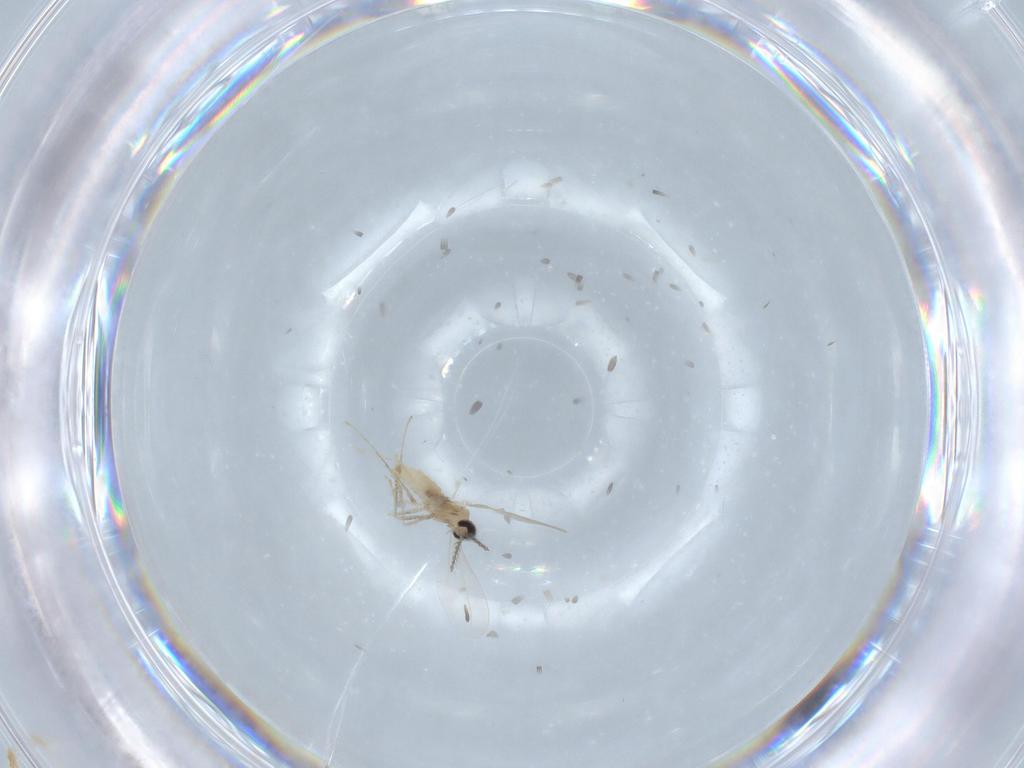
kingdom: Animalia
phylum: Arthropoda
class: Insecta
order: Diptera
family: Cecidomyiidae
